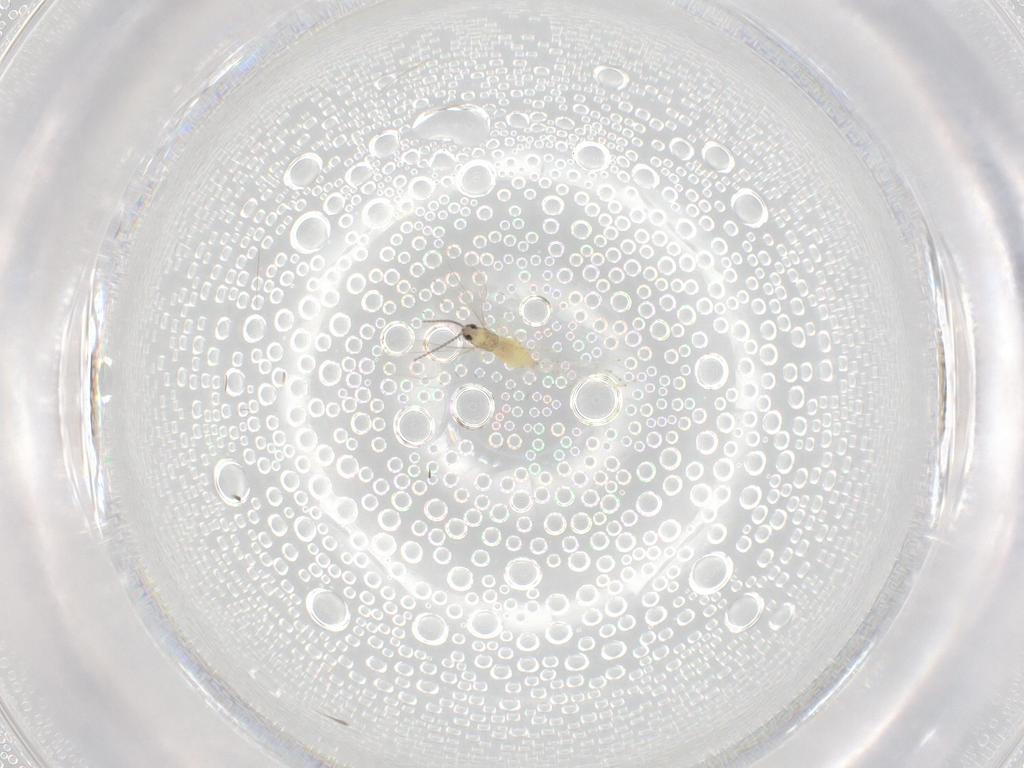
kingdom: Animalia
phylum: Arthropoda
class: Insecta
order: Diptera
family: Cecidomyiidae
